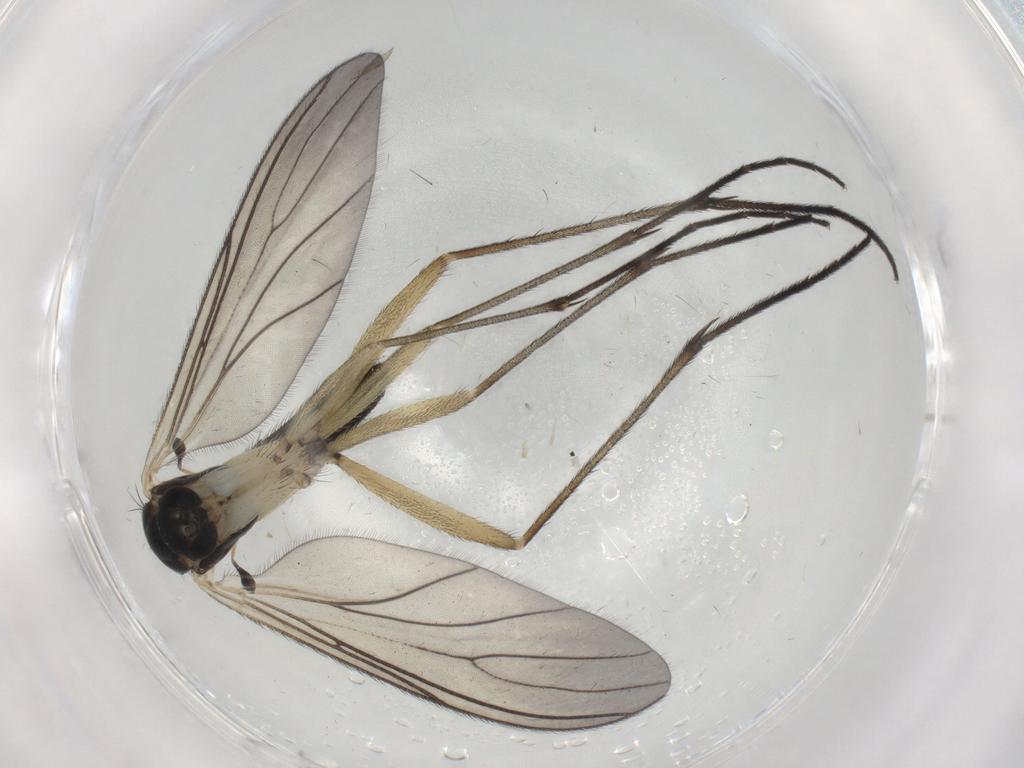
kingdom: Animalia
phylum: Arthropoda
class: Insecta
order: Diptera
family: Sciaridae
